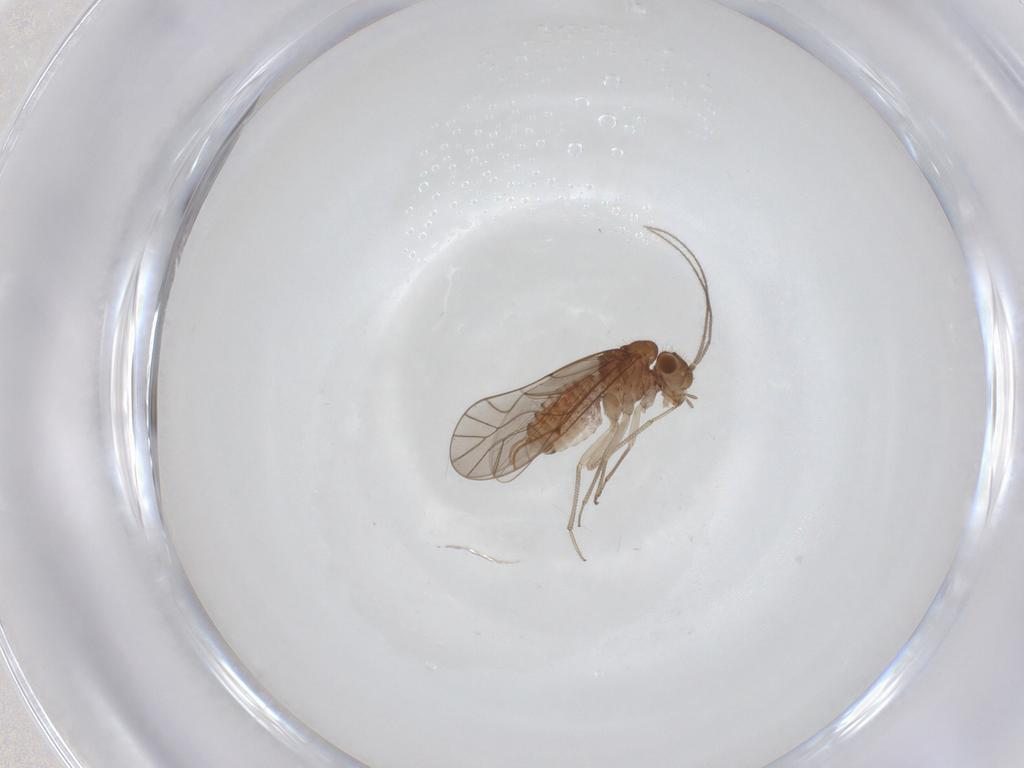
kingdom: Animalia
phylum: Arthropoda
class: Insecta
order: Psocodea
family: Lachesillidae
